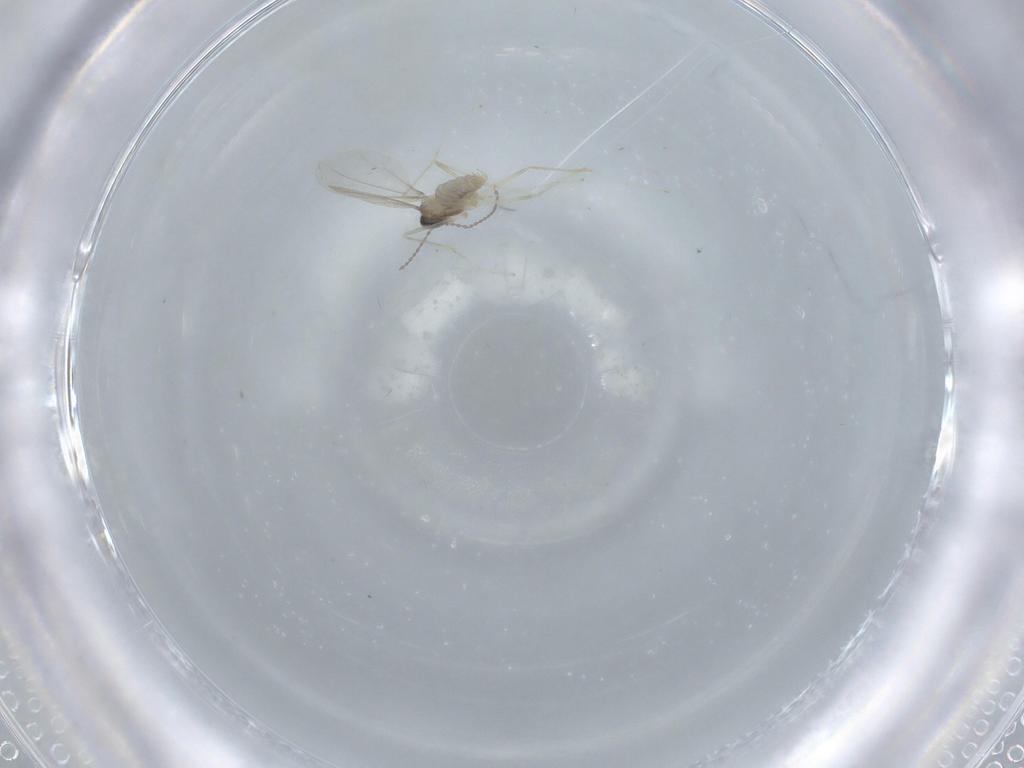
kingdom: Animalia
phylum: Arthropoda
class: Insecta
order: Diptera
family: Cecidomyiidae
